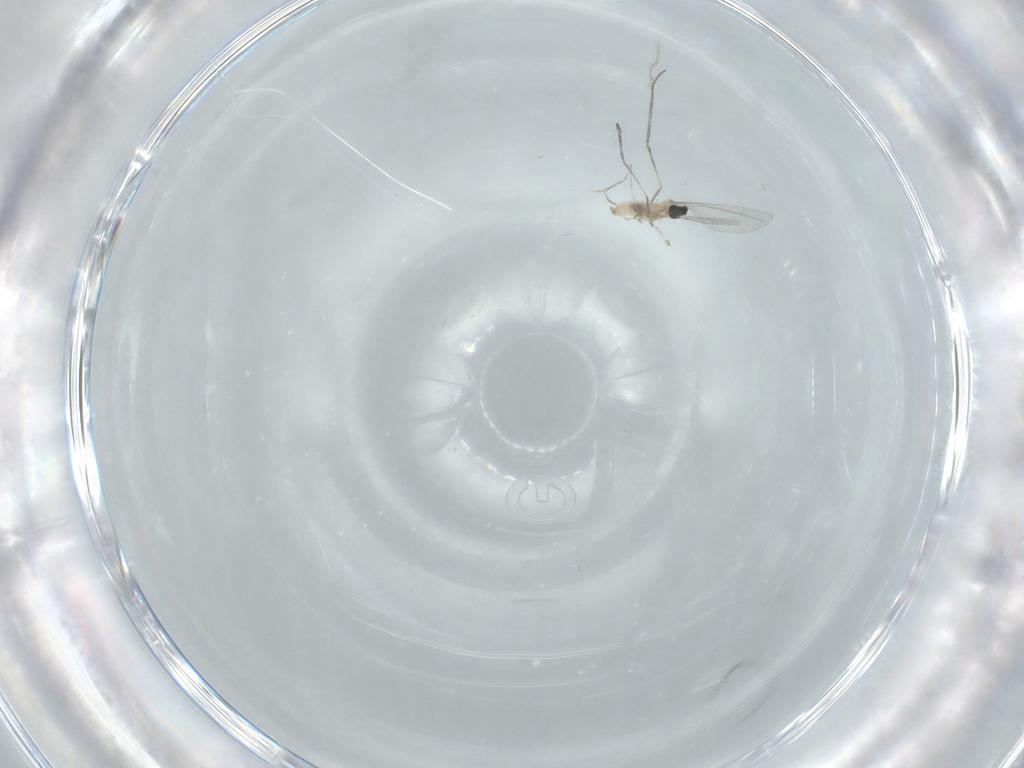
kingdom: Animalia
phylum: Arthropoda
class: Insecta
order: Diptera
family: Cecidomyiidae
